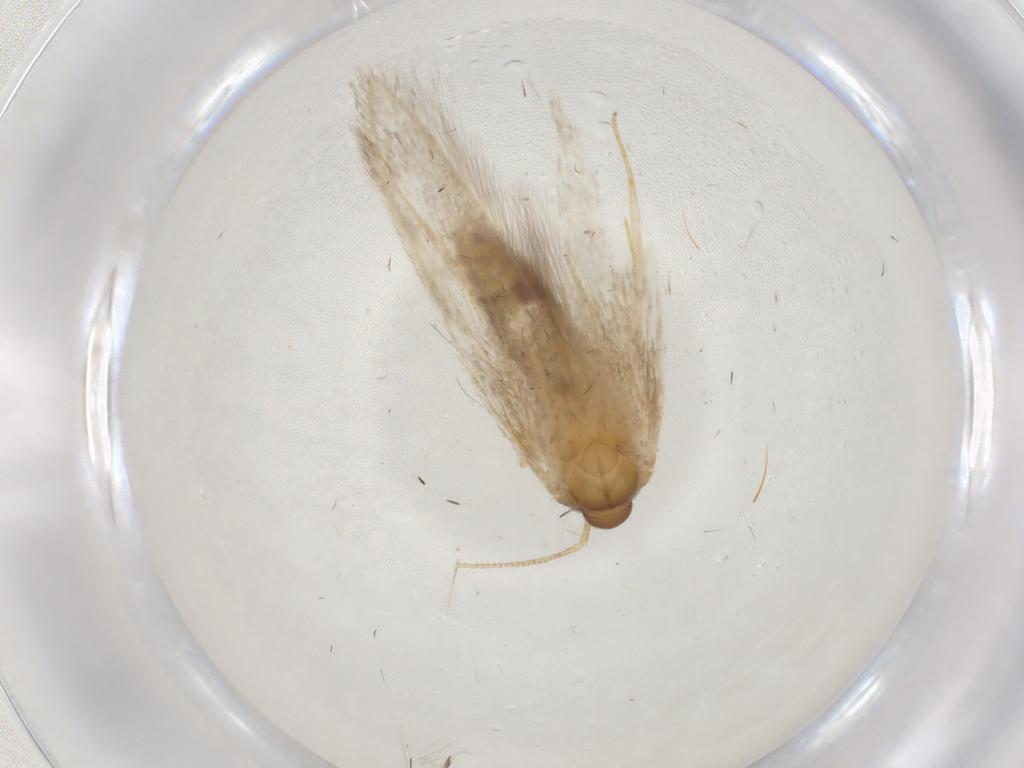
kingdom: Animalia
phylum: Arthropoda
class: Insecta
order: Lepidoptera
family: Coleophoridae
